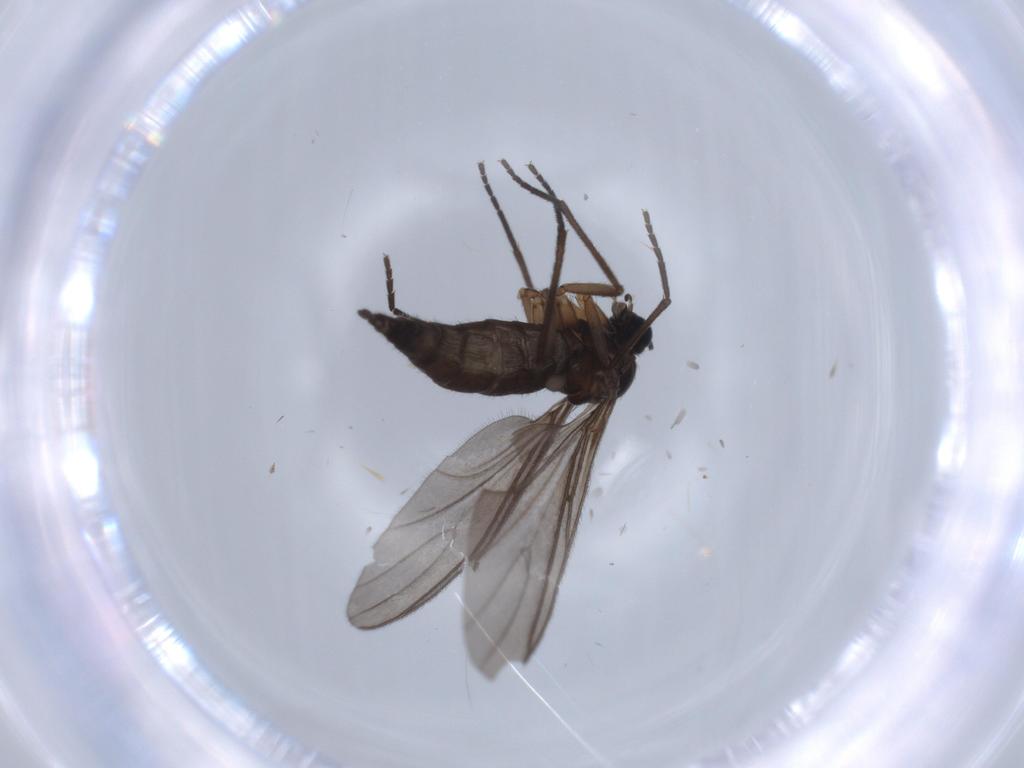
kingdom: Animalia
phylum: Arthropoda
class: Insecta
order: Diptera
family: Sciaridae
